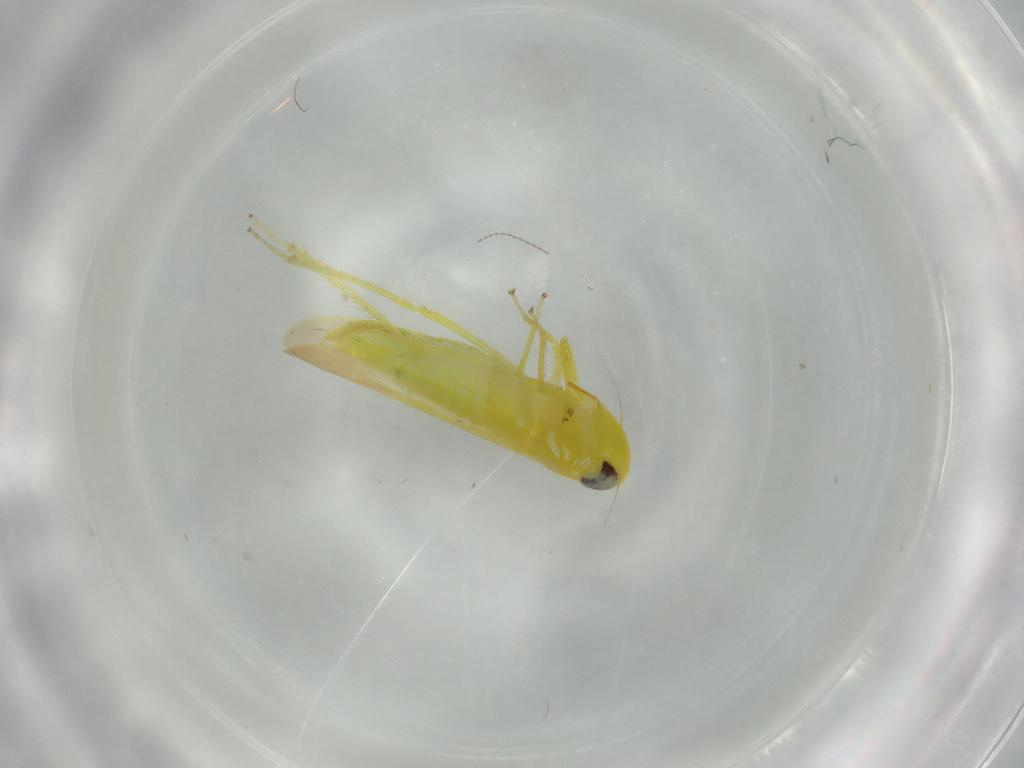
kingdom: Animalia
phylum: Arthropoda
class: Insecta
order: Hemiptera
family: Cicadellidae
